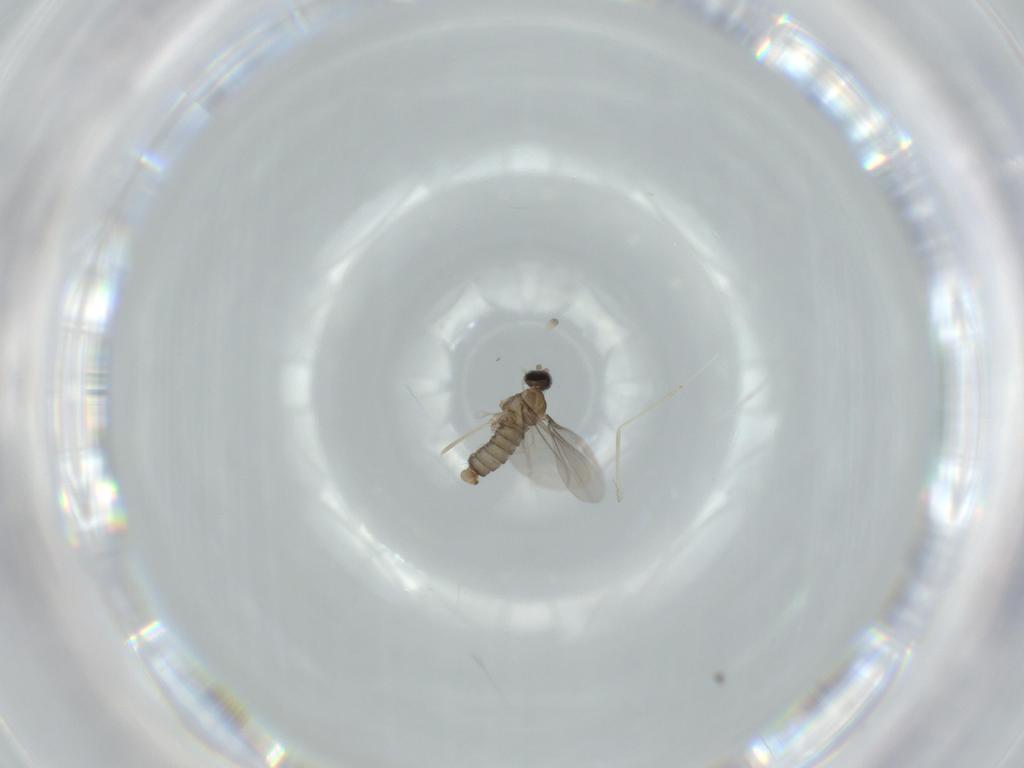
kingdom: Animalia
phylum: Arthropoda
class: Insecta
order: Diptera
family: Cecidomyiidae
